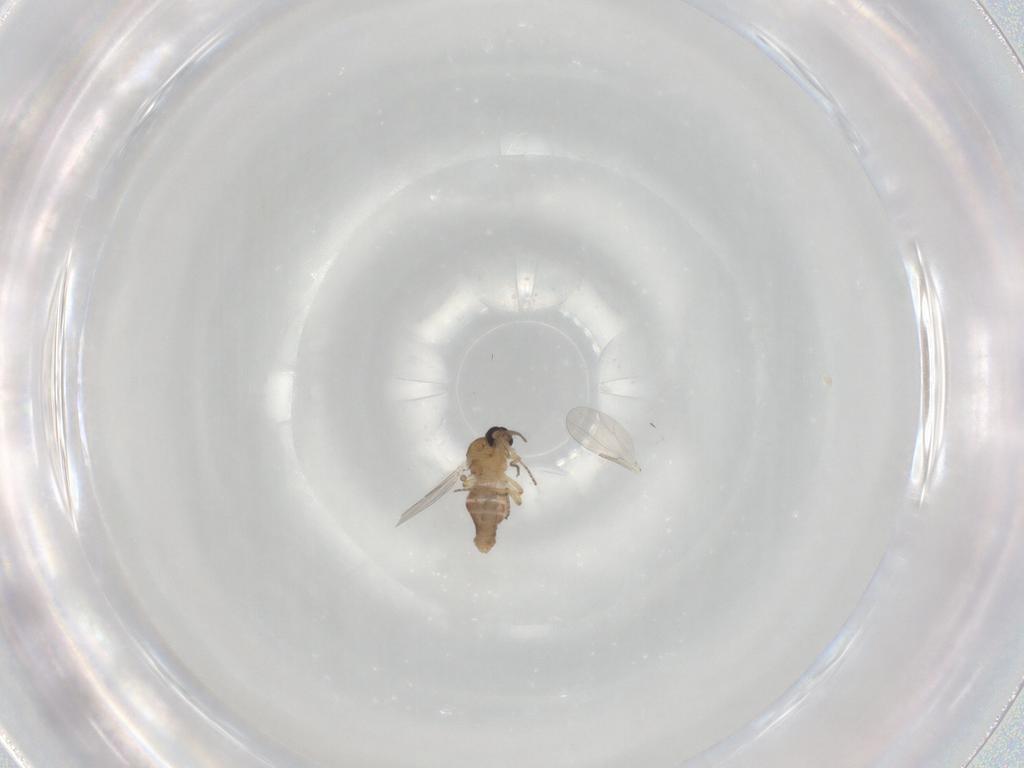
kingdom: Animalia
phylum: Arthropoda
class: Insecta
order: Diptera
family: Ceratopogonidae
